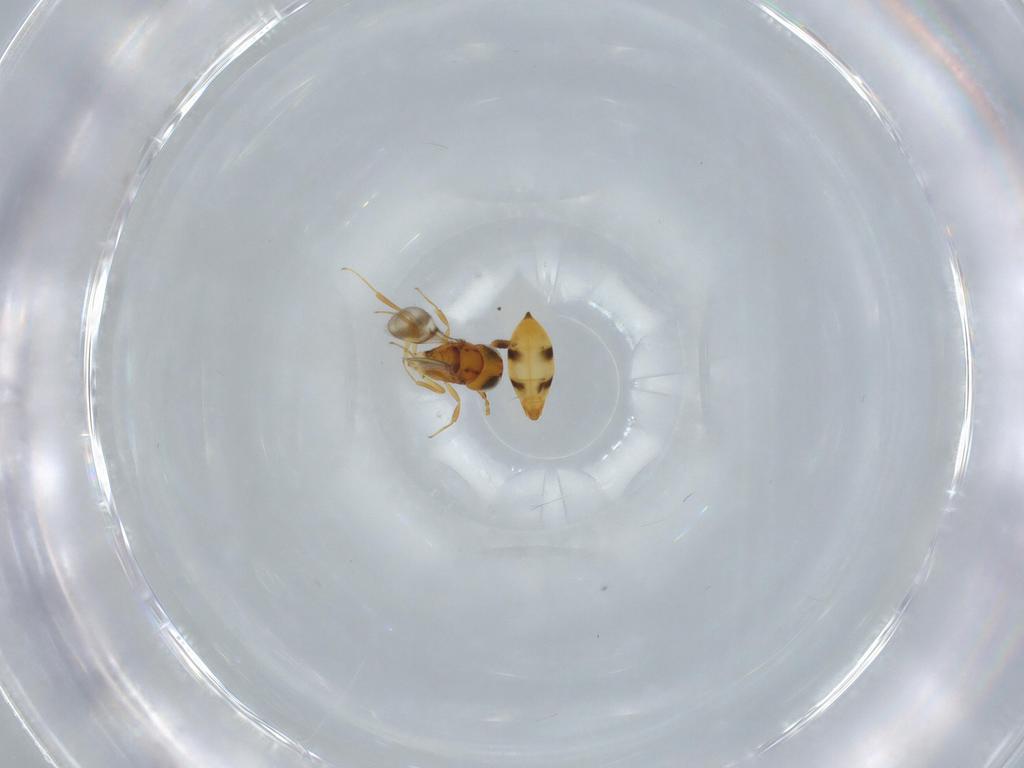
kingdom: Animalia
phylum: Arthropoda
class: Insecta
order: Hymenoptera
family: Scelionidae
